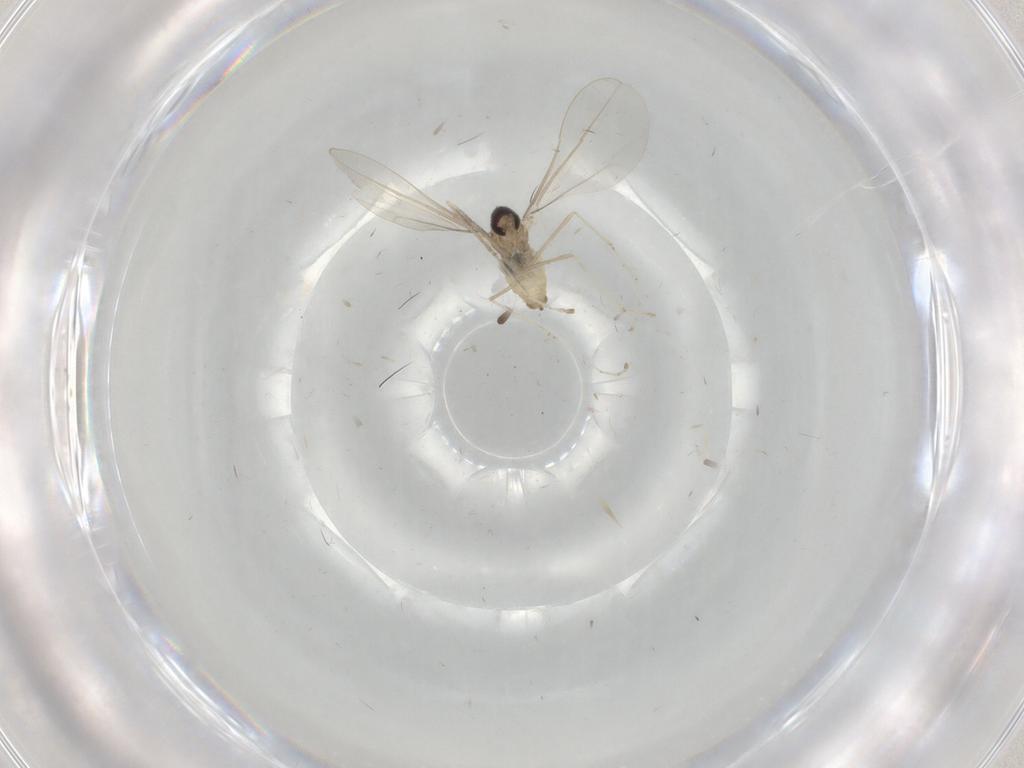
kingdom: Animalia
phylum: Arthropoda
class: Insecta
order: Diptera
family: Cecidomyiidae
